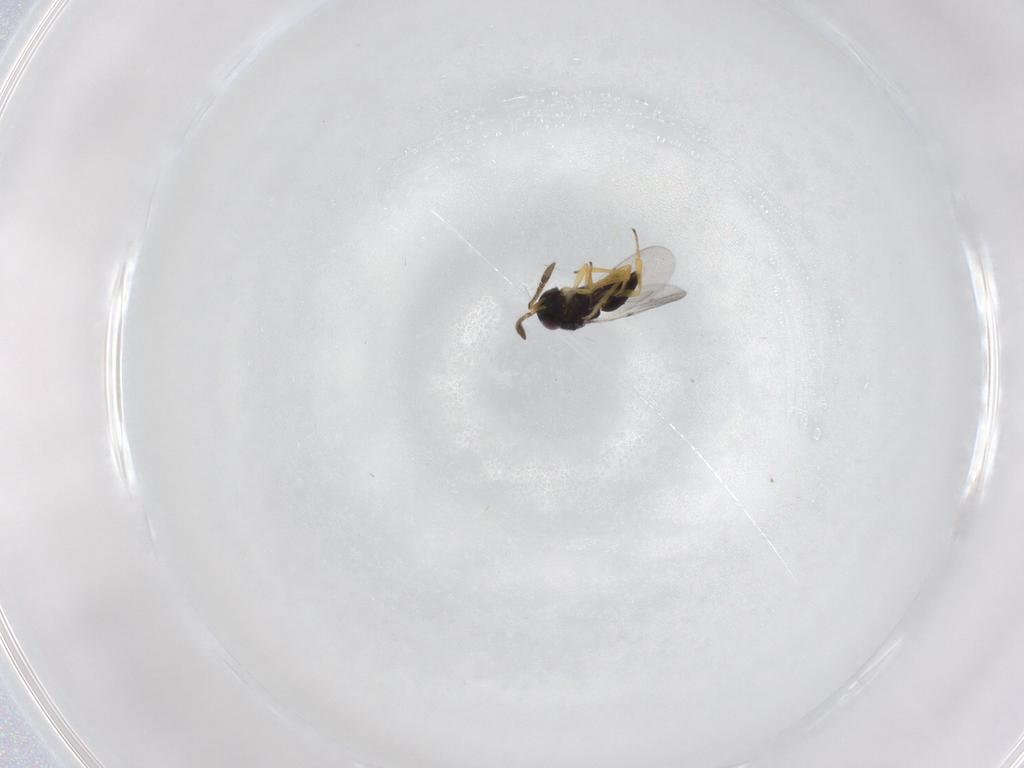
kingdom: Animalia
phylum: Arthropoda
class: Insecta
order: Hymenoptera
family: Encyrtidae
